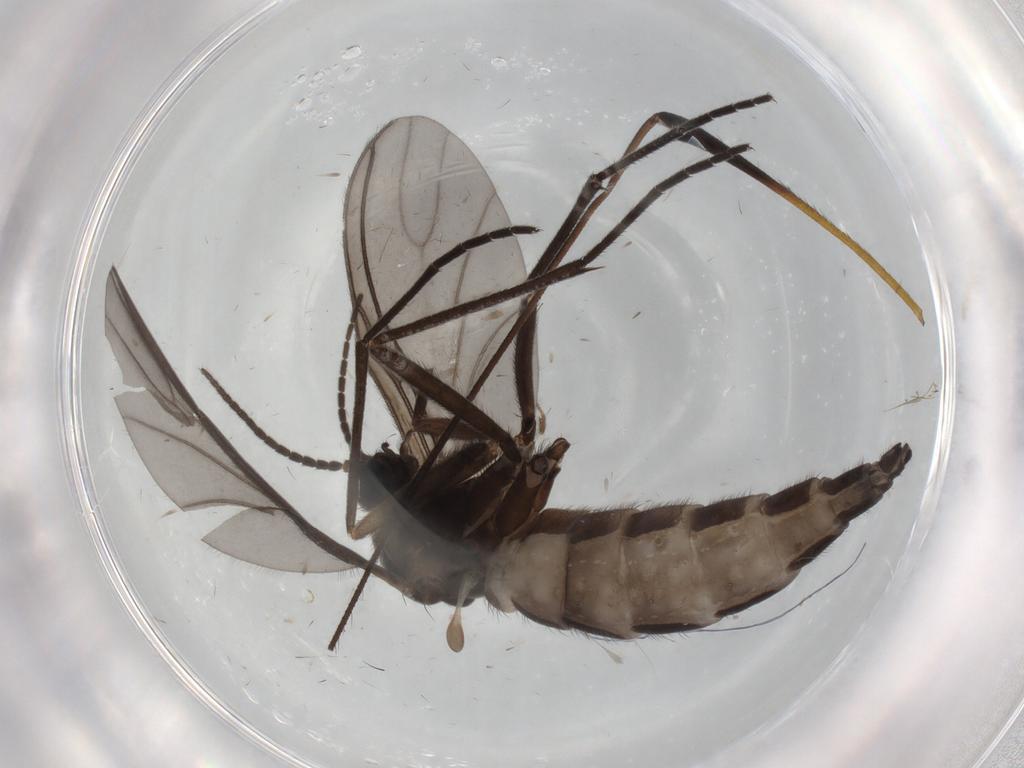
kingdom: Animalia
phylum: Arthropoda
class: Insecta
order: Diptera
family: Limoniidae
